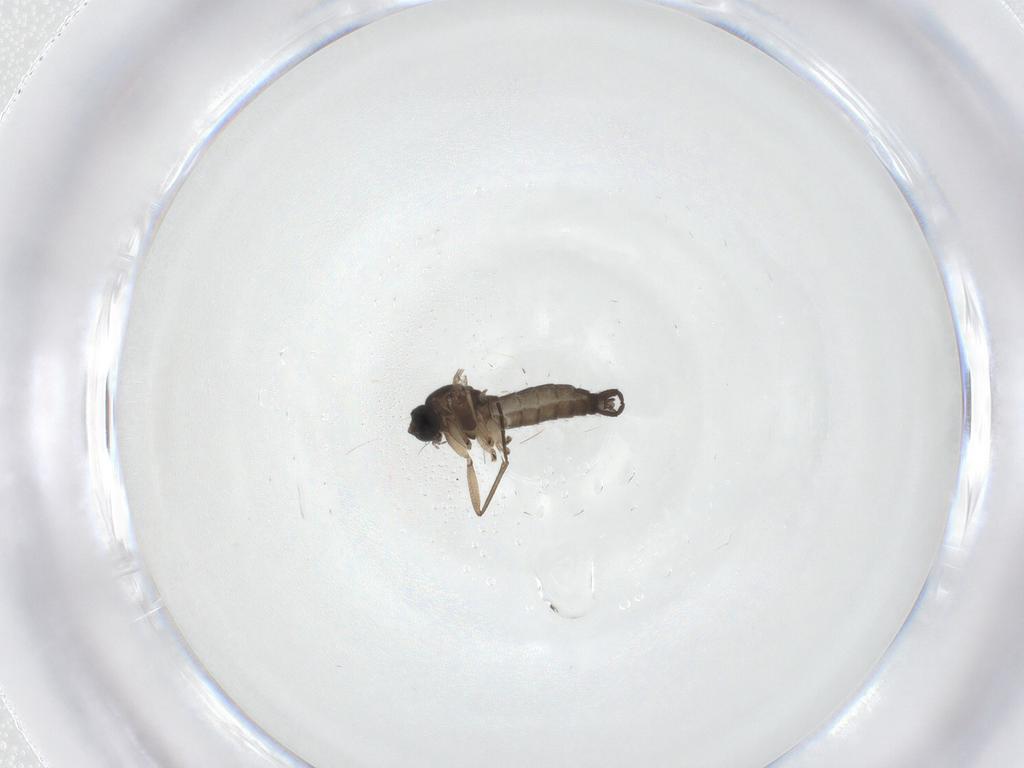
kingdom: Animalia
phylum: Arthropoda
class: Insecta
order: Diptera
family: Sciaridae
